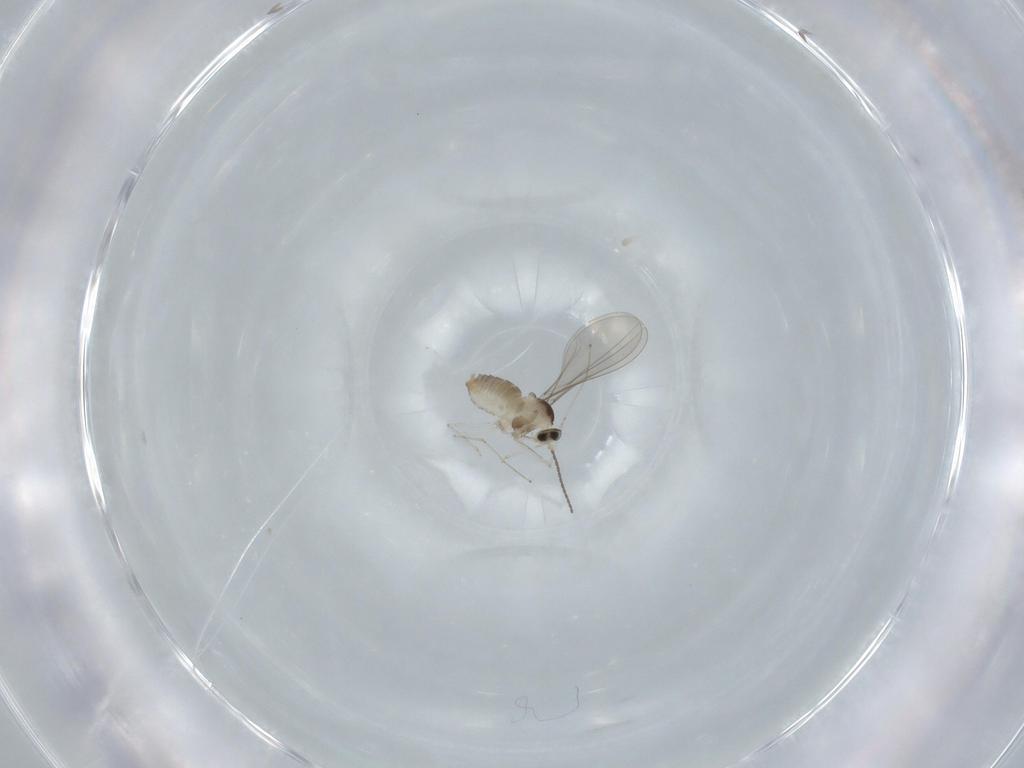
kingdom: Animalia
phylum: Arthropoda
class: Insecta
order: Diptera
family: Cecidomyiidae
